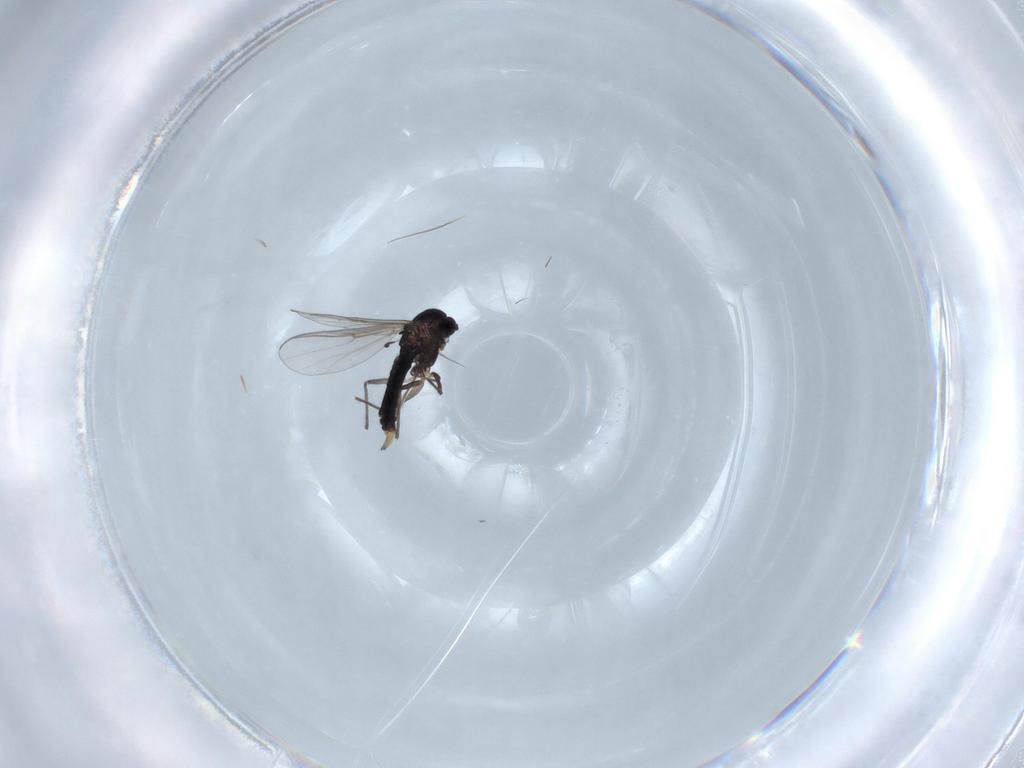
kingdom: Animalia
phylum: Arthropoda
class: Insecta
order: Diptera
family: Chironomidae
